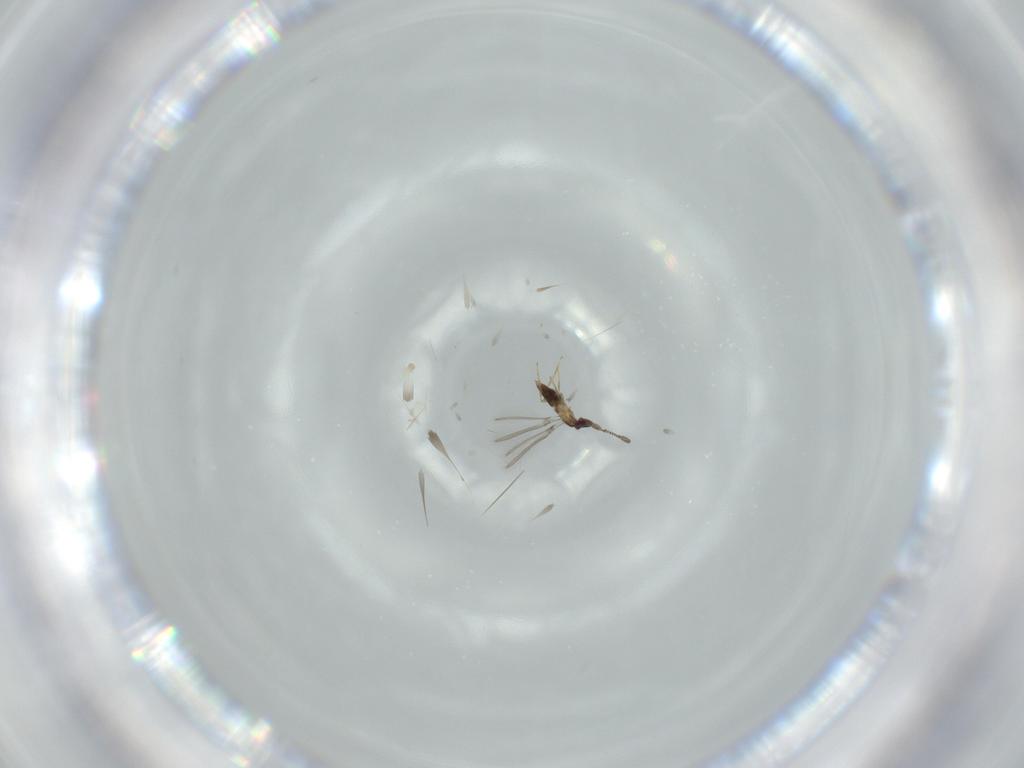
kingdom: Animalia
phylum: Arthropoda
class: Insecta
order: Hymenoptera
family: Mymaridae
